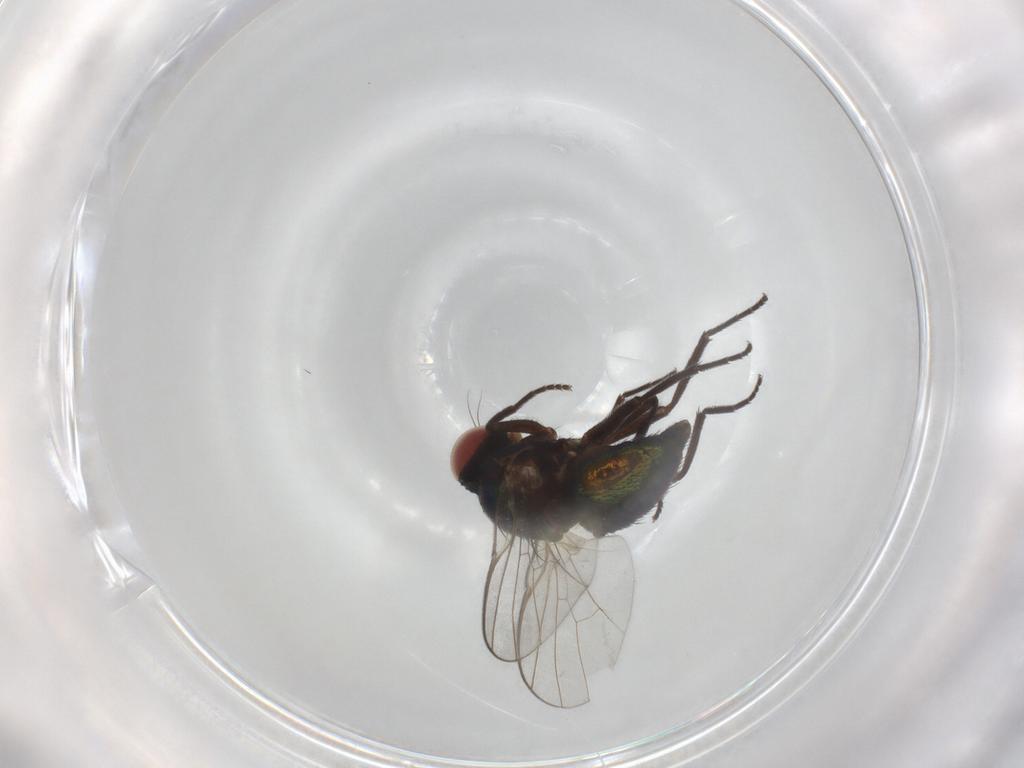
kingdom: Animalia
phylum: Arthropoda
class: Insecta
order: Diptera
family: Agromyzidae
